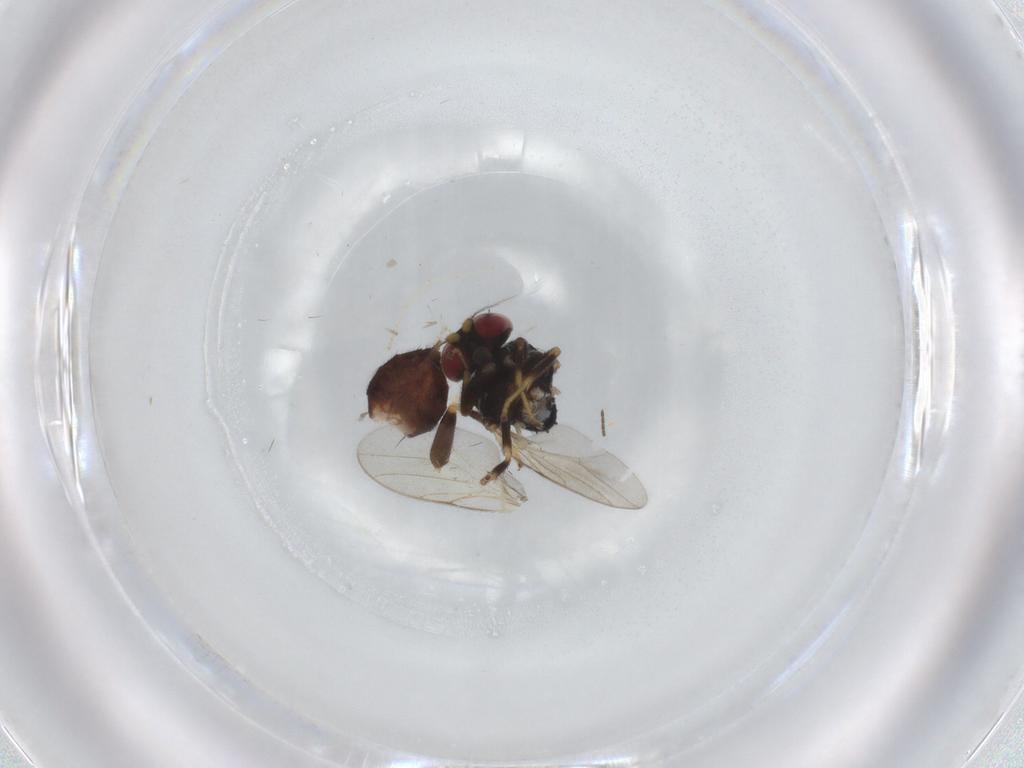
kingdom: Animalia
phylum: Arthropoda
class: Insecta
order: Diptera
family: Chloropidae
